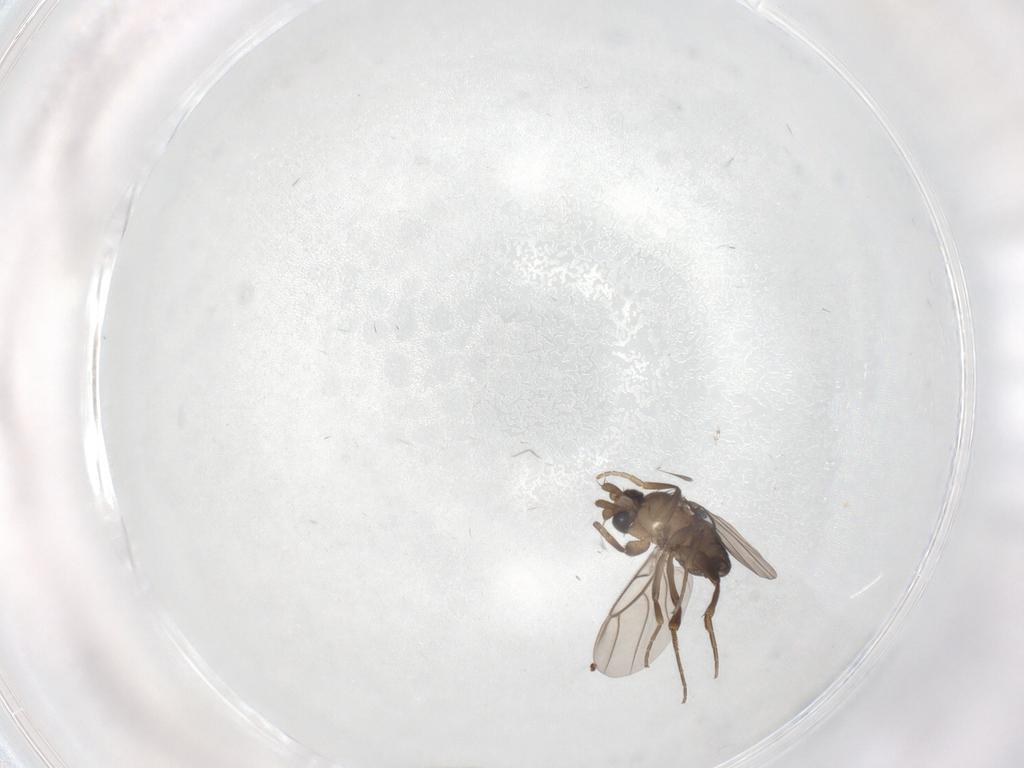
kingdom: Animalia
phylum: Arthropoda
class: Insecta
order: Diptera
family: Phoridae
